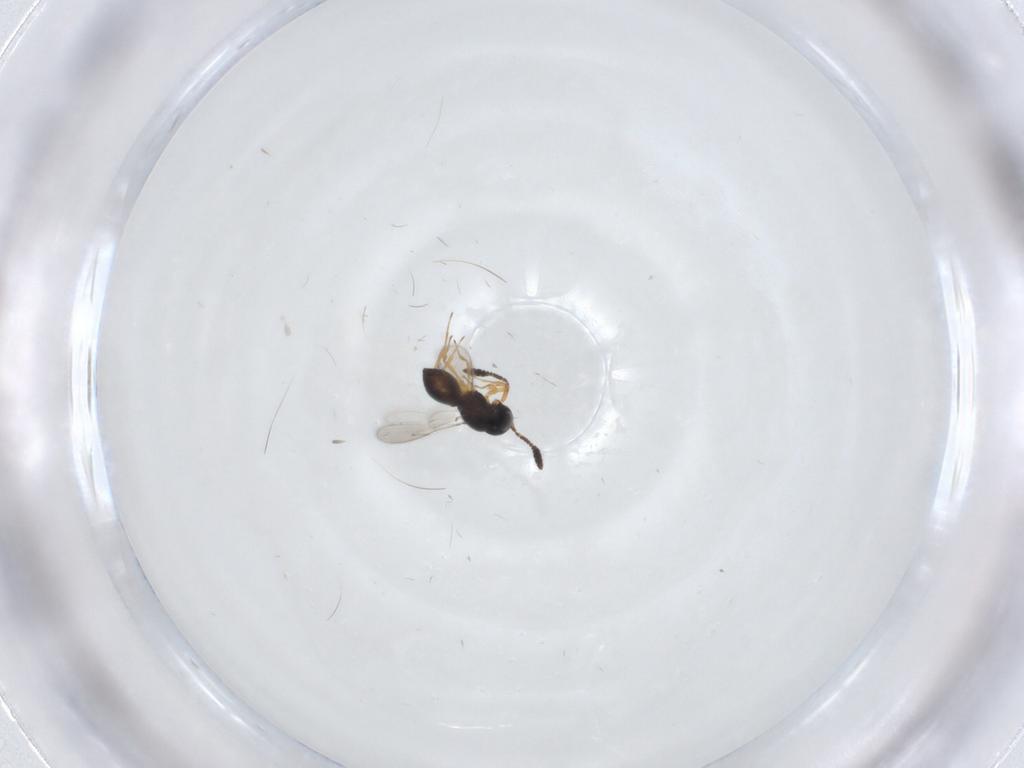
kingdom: Animalia
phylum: Arthropoda
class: Insecta
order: Hymenoptera
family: Scelionidae
